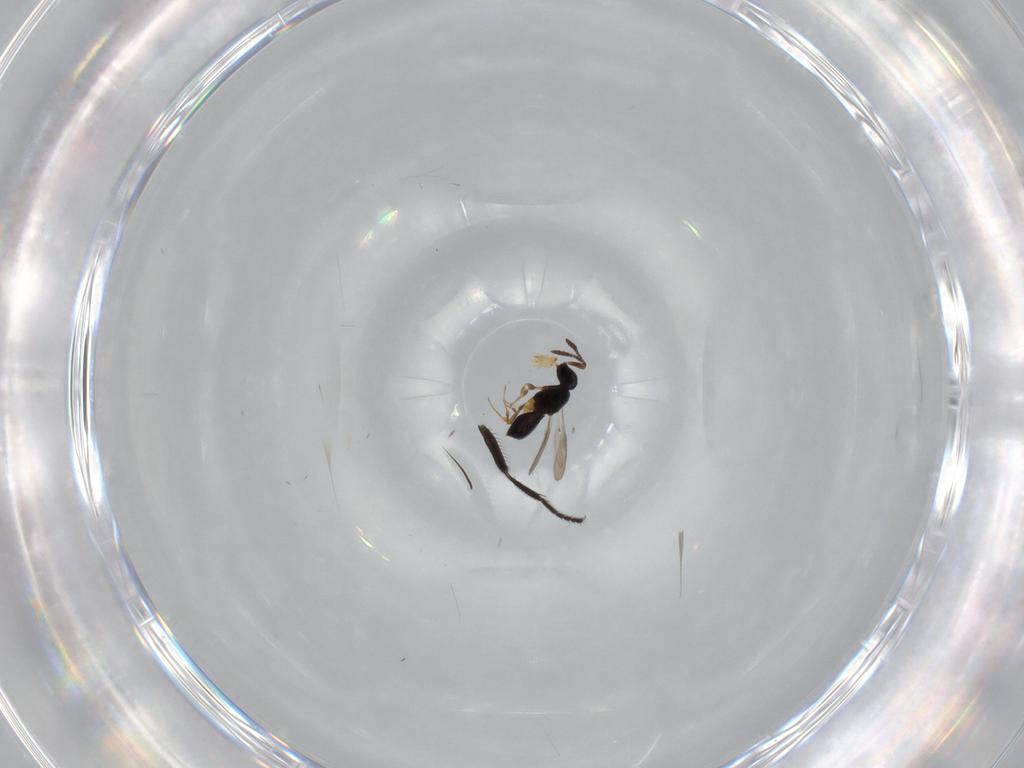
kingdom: Animalia
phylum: Arthropoda
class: Insecta
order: Hymenoptera
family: Scelionidae
